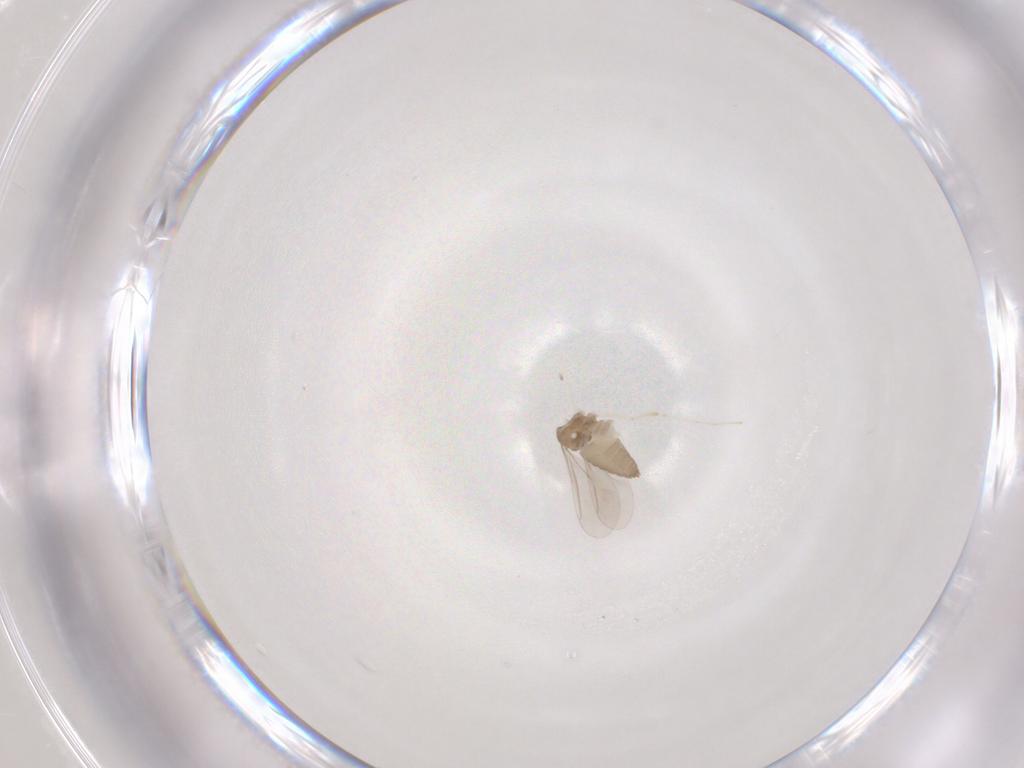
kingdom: Animalia
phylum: Arthropoda
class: Insecta
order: Diptera
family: Cecidomyiidae
